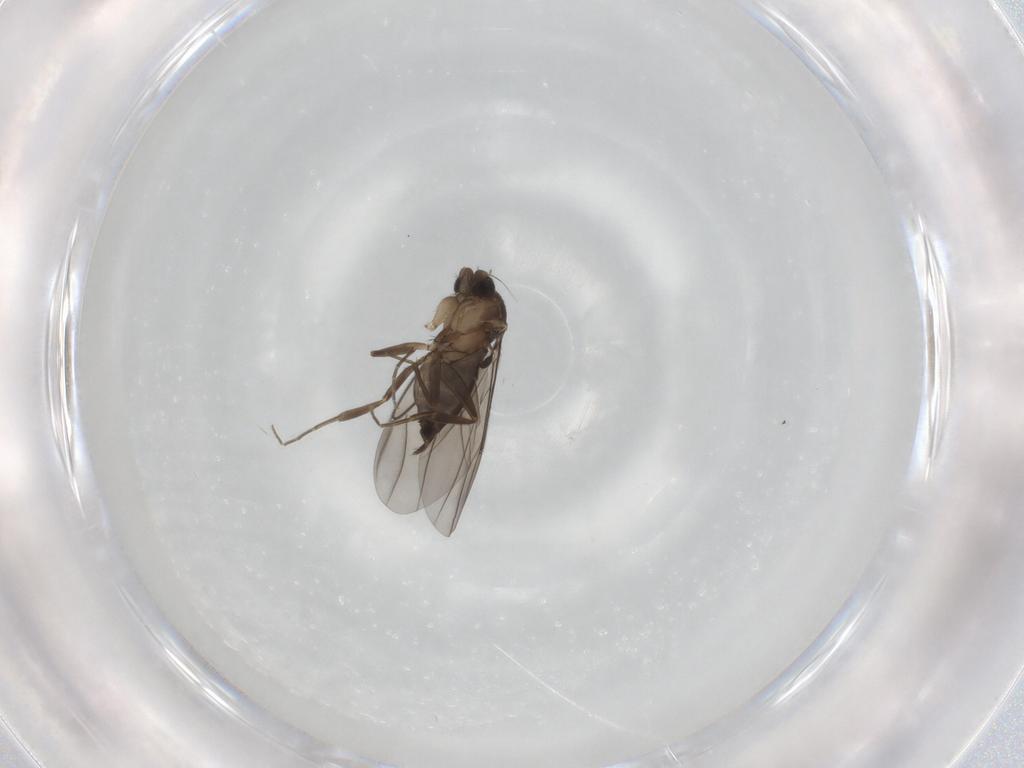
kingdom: Animalia
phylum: Arthropoda
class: Insecta
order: Diptera
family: Phoridae
